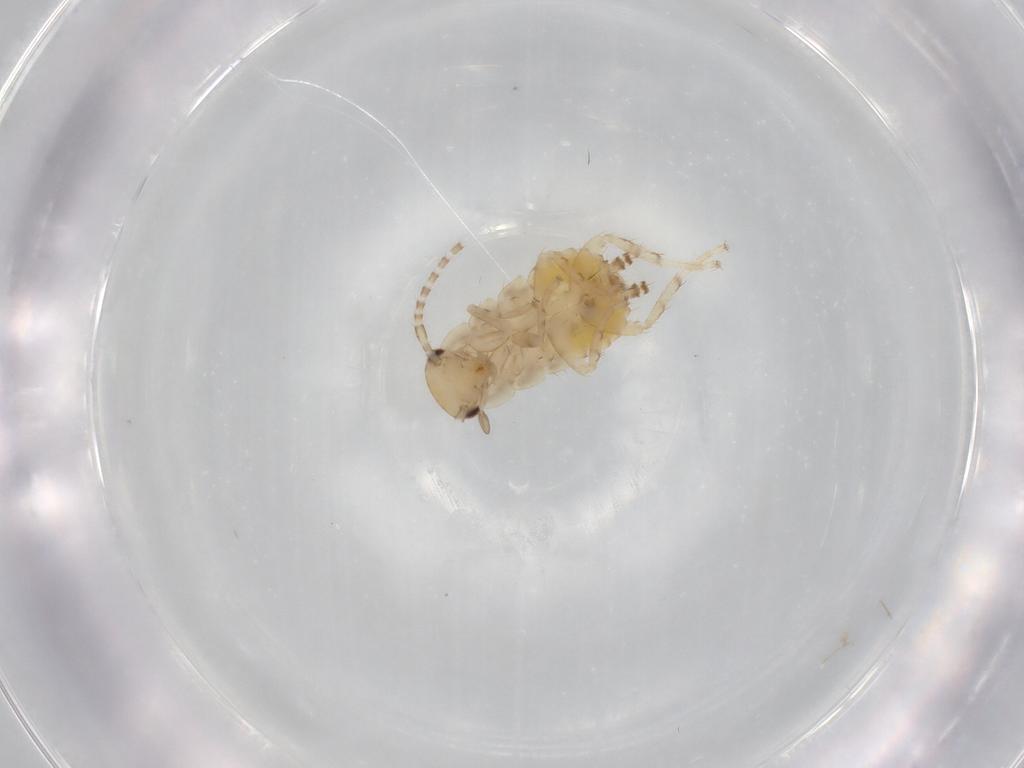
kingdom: Animalia
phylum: Arthropoda
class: Insecta
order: Blattodea
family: Ectobiidae
